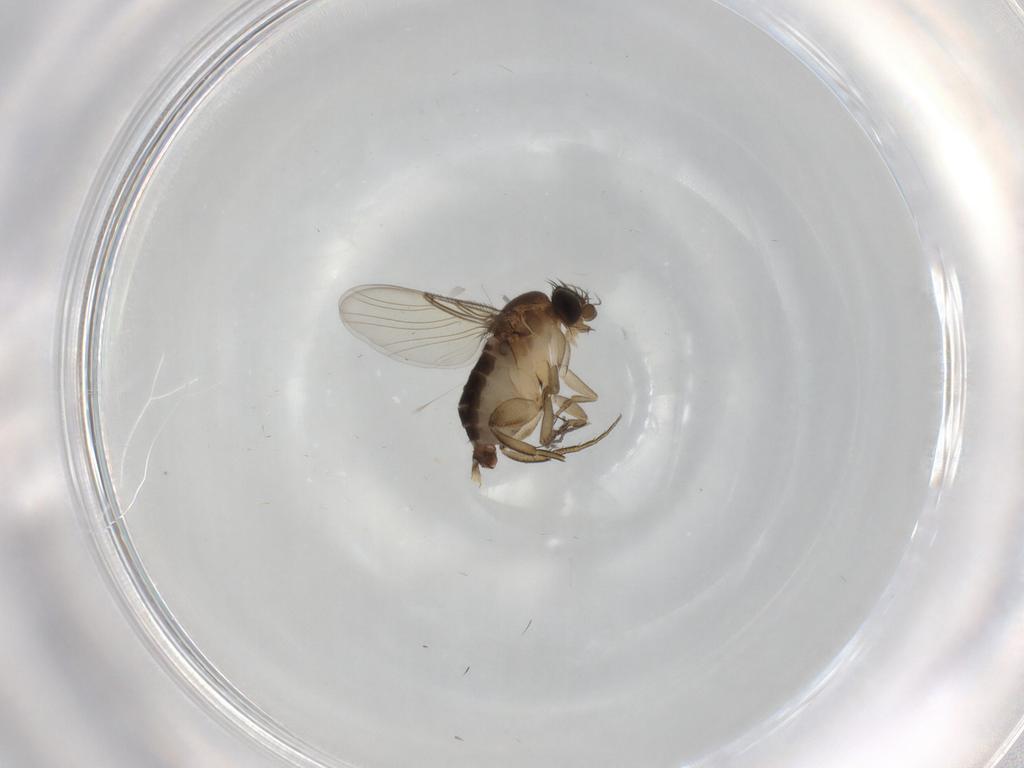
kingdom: Animalia
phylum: Arthropoda
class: Insecta
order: Diptera
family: Phoridae
